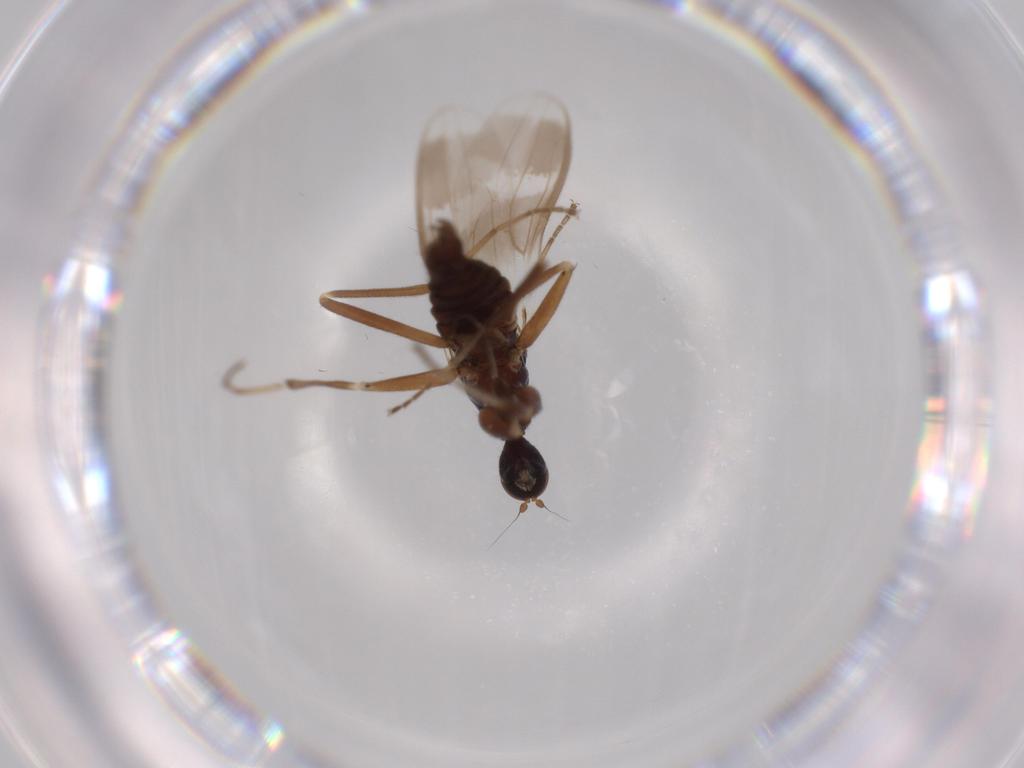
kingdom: Animalia
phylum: Arthropoda
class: Insecta
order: Diptera
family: Hybotidae
